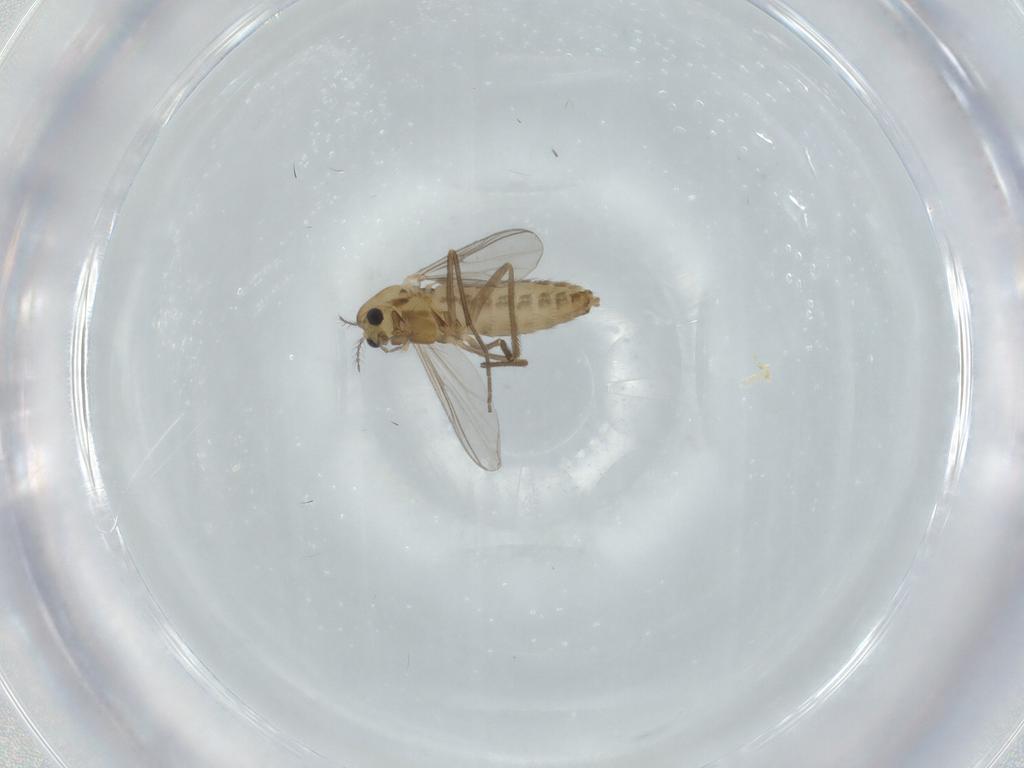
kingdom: Animalia
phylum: Arthropoda
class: Insecta
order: Diptera
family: Chironomidae
